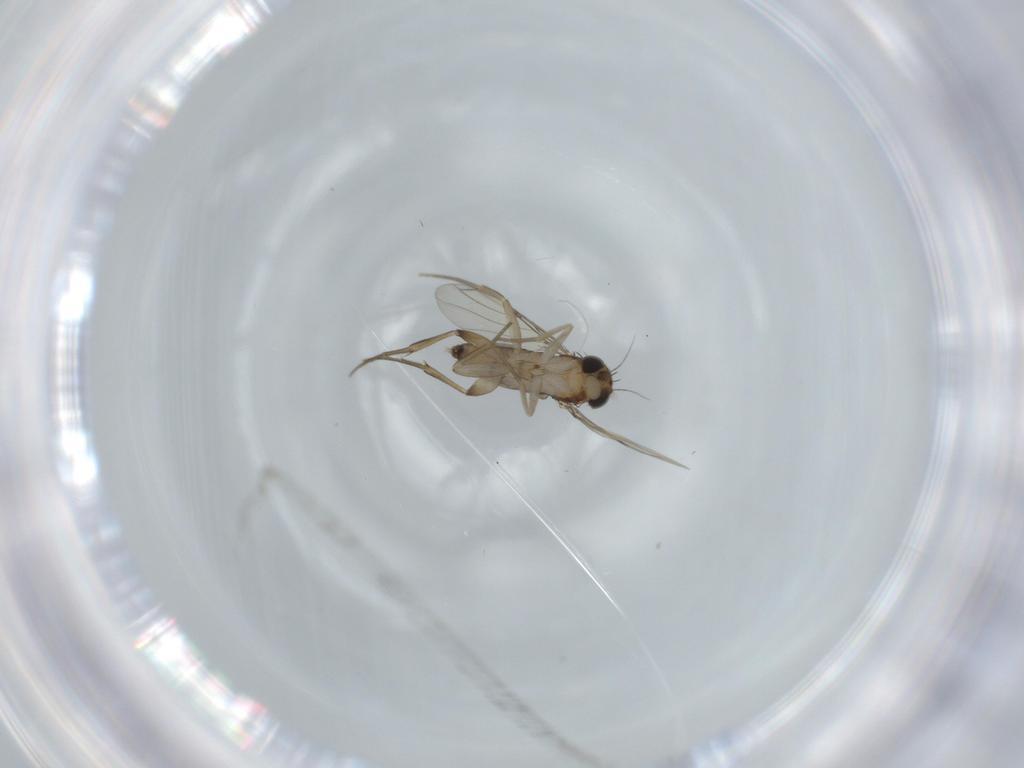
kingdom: Animalia
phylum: Arthropoda
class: Insecta
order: Diptera
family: Phoridae
